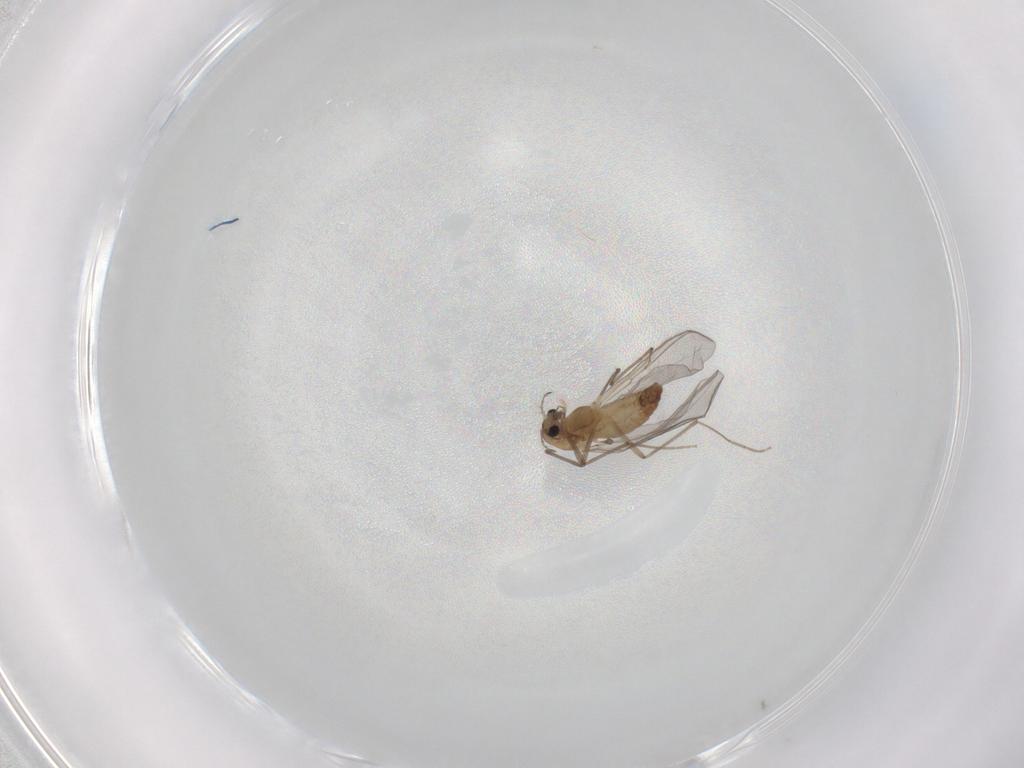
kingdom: Animalia
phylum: Arthropoda
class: Insecta
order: Diptera
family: Chironomidae
